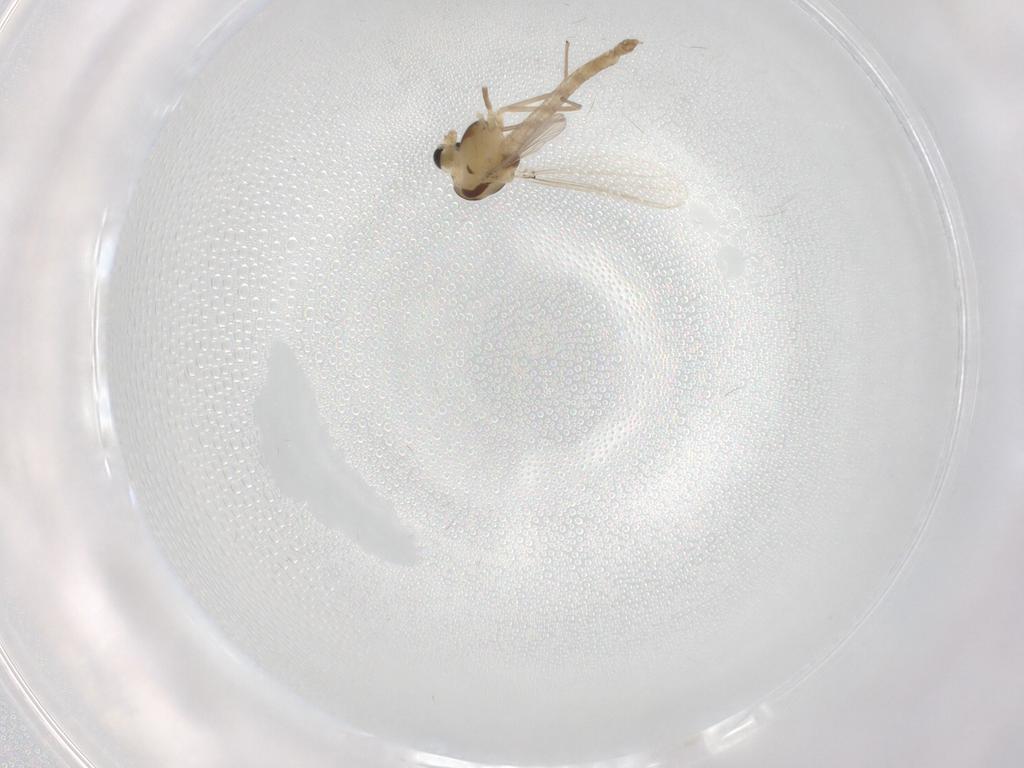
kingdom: Animalia
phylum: Arthropoda
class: Insecta
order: Diptera
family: Chironomidae
